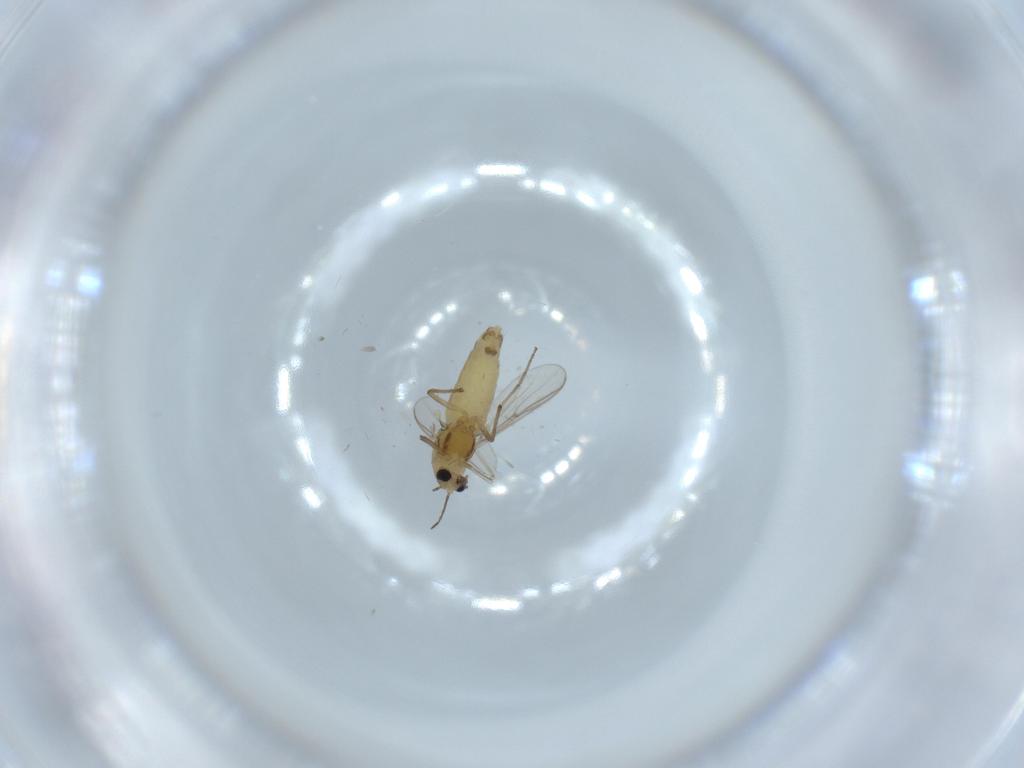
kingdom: Animalia
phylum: Arthropoda
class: Insecta
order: Diptera
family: Chironomidae
